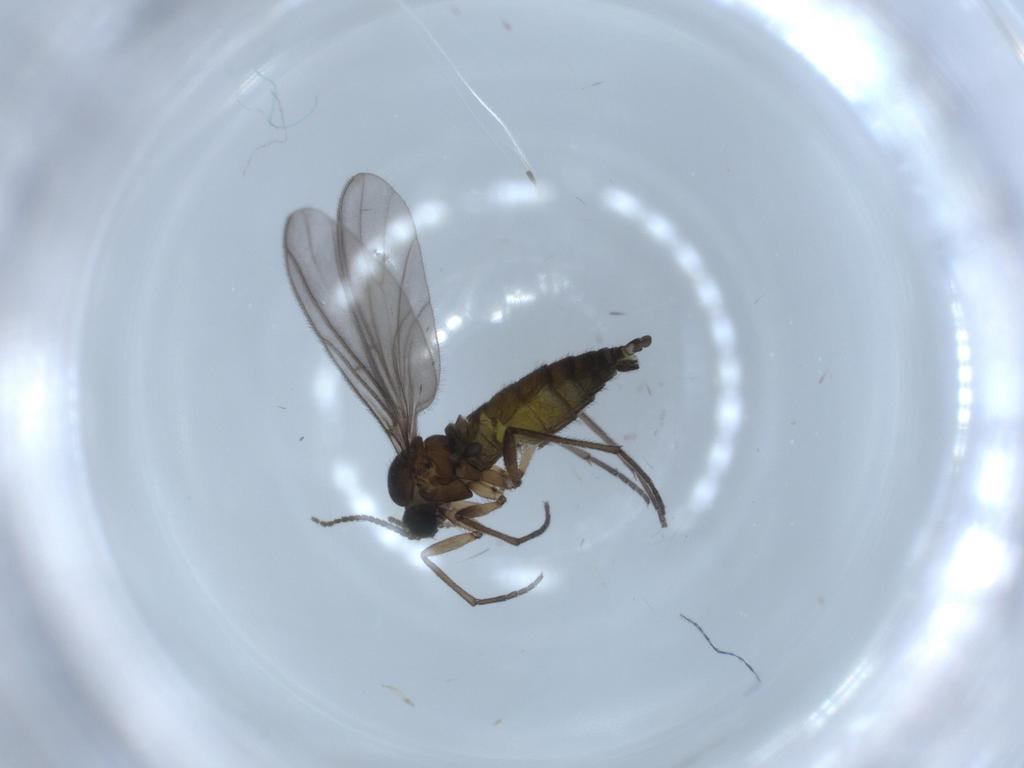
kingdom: Animalia
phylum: Arthropoda
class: Insecta
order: Diptera
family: Sciaridae
